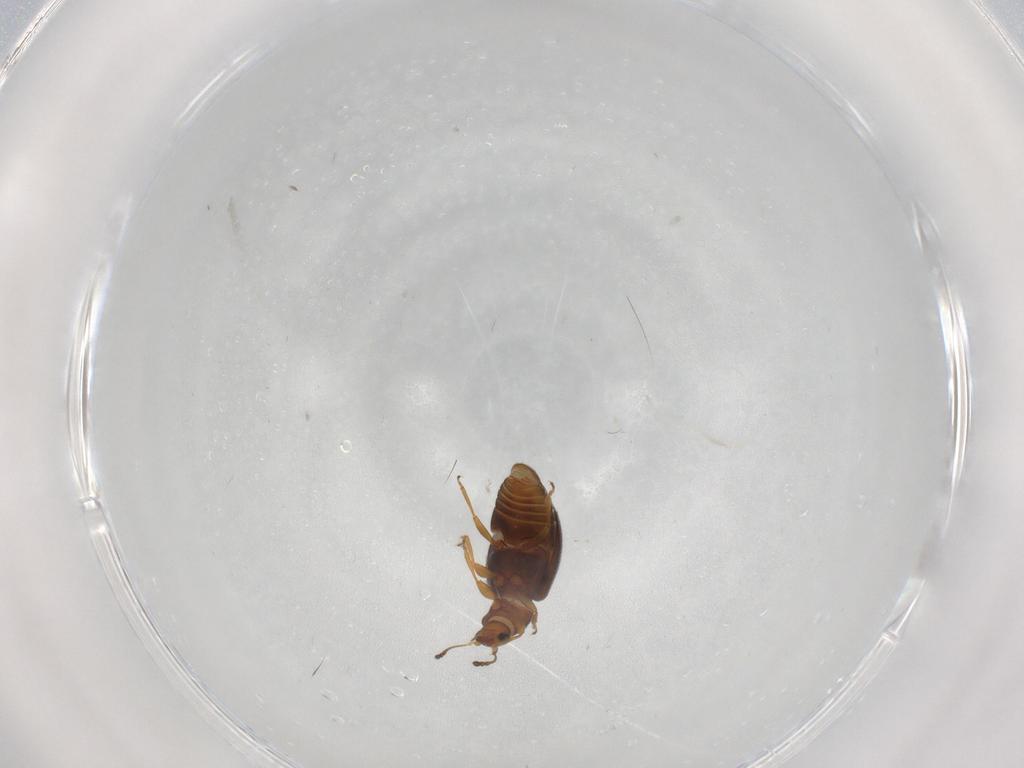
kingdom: Animalia
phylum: Arthropoda
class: Insecta
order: Coleoptera
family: Latridiidae
